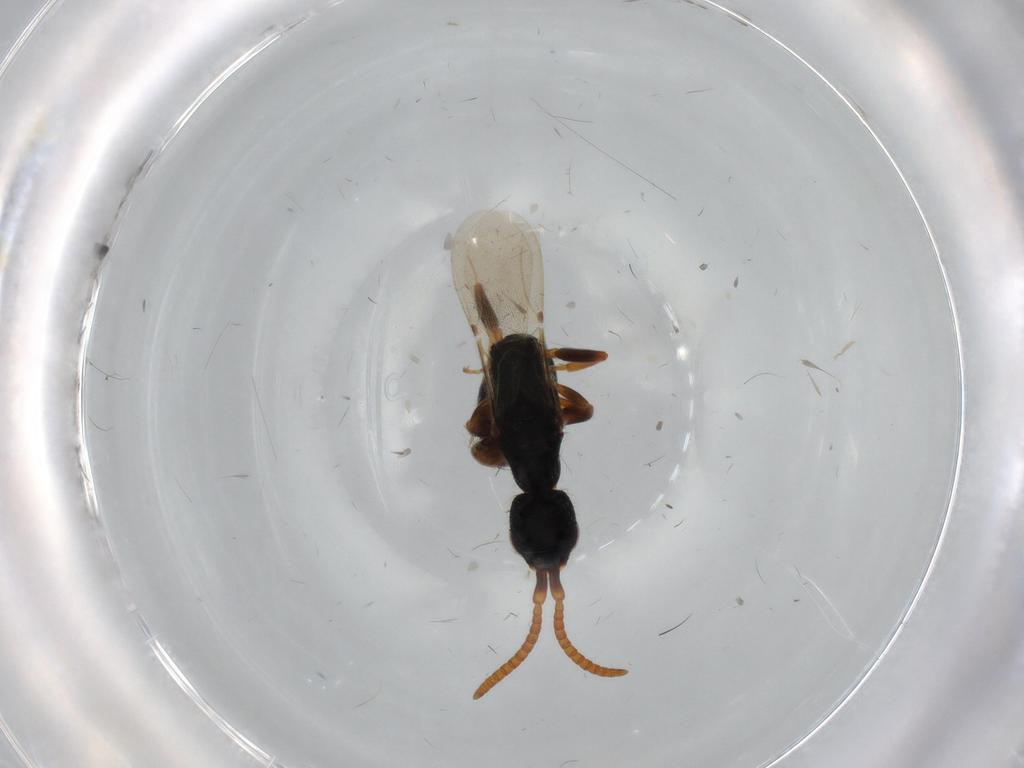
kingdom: Animalia
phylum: Arthropoda
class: Insecta
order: Hymenoptera
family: Bethylidae
